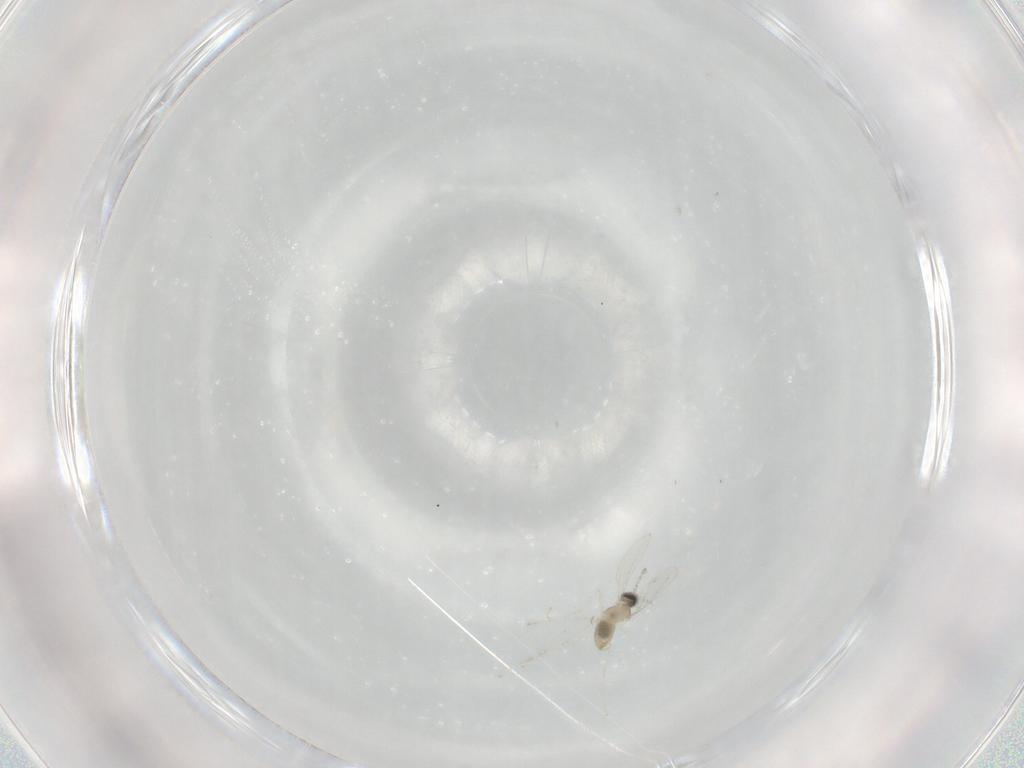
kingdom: Animalia
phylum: Arthropoda
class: Insecta
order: Diptera
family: Cecidomyiidae
